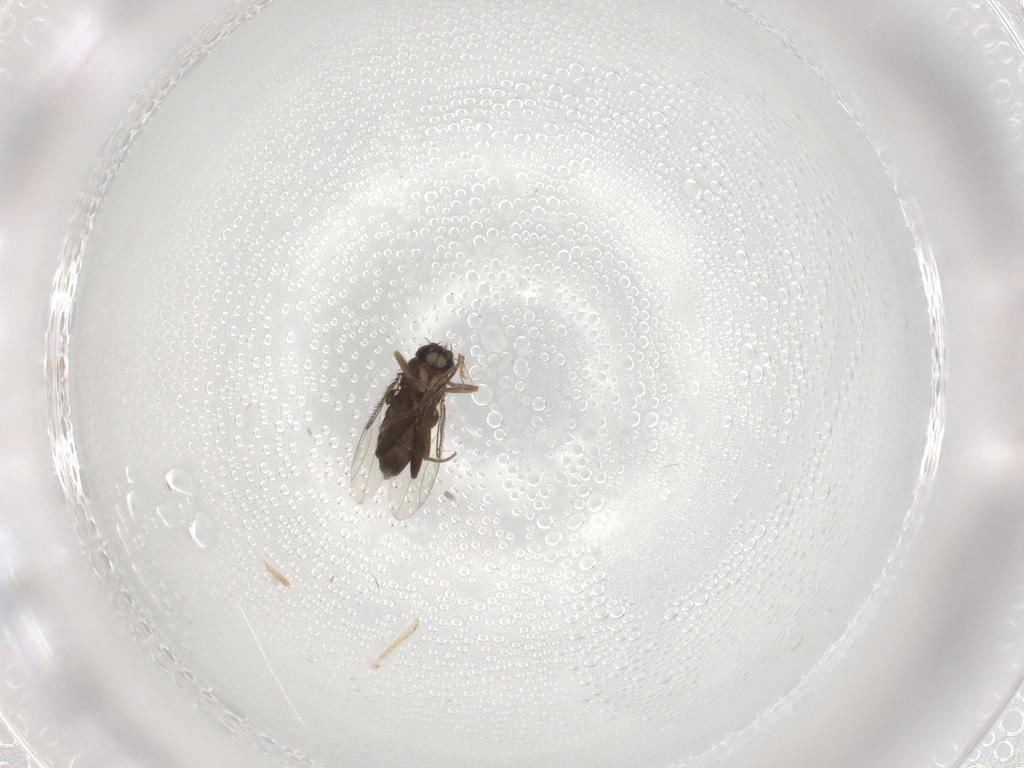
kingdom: Animalia
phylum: Arthropoda
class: Insecta
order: Diptera
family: Phoridae
